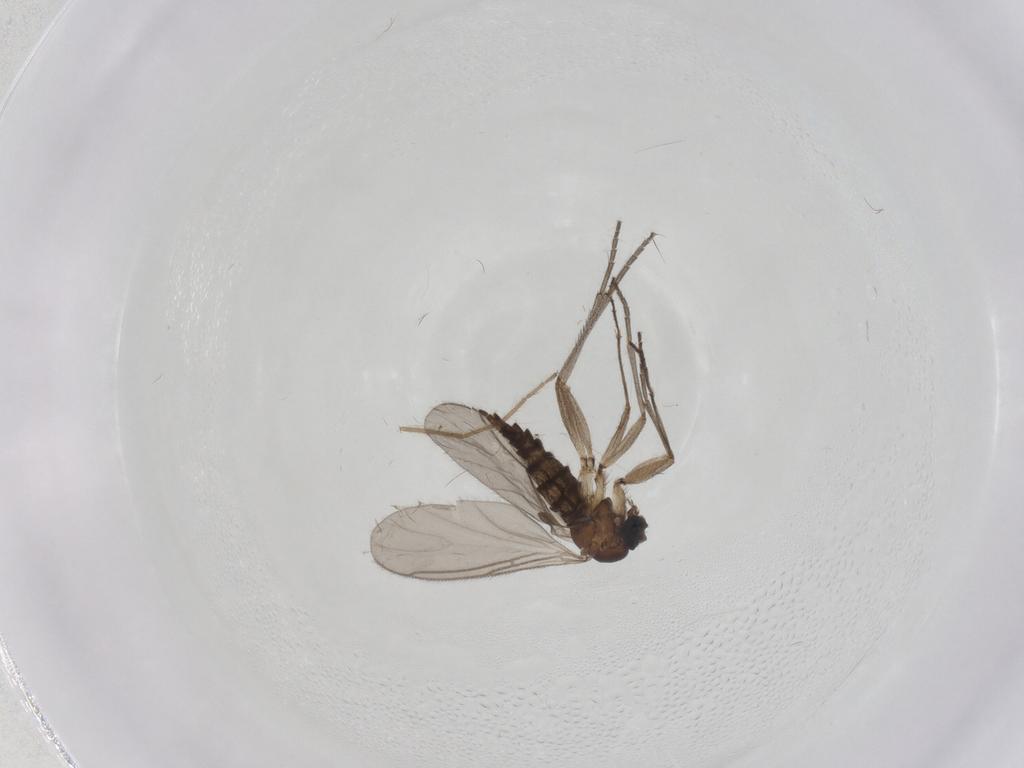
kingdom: Animalia
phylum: Arthropoda
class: Insecta
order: Diptera
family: Sciaridae
